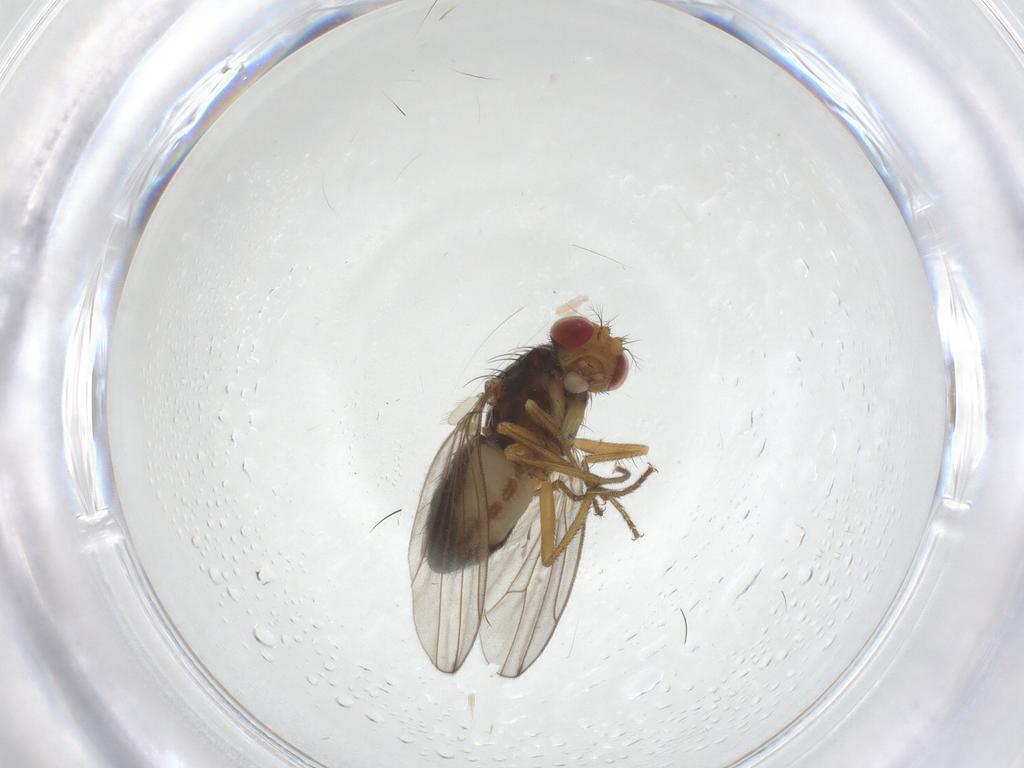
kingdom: Animalia
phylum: Arthropoda
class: Insecta
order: Diptera
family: Drosophilidae
